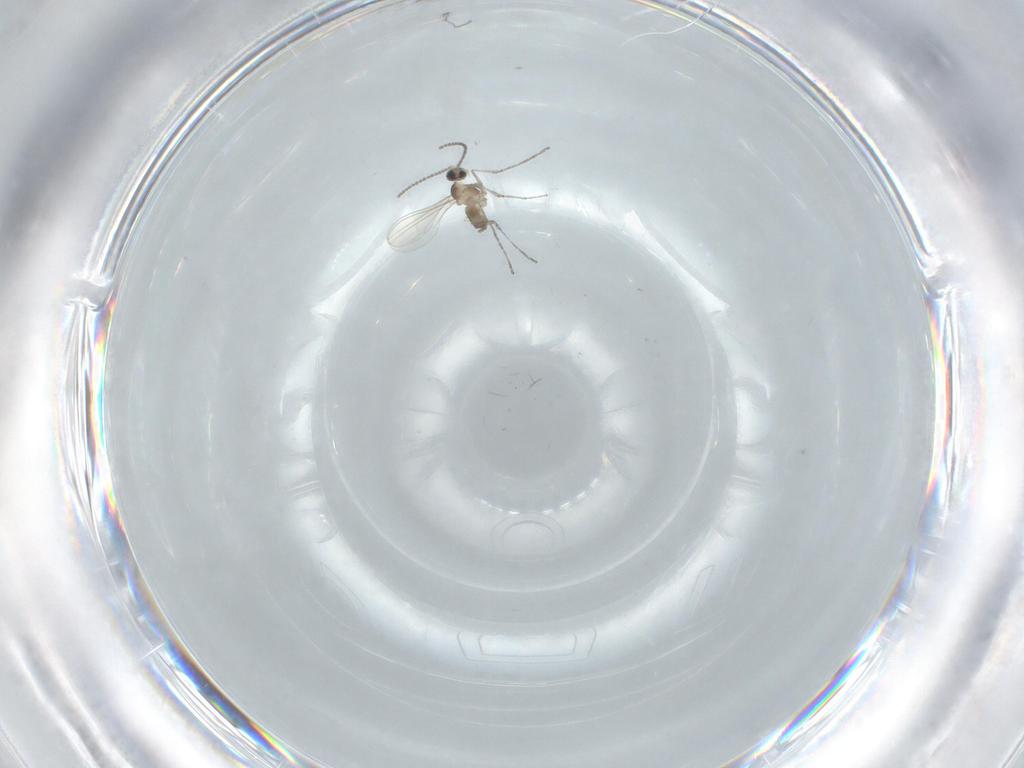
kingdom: Animalia
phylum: Arthropoda
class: Insecta
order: Diptera
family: Chironomidae
